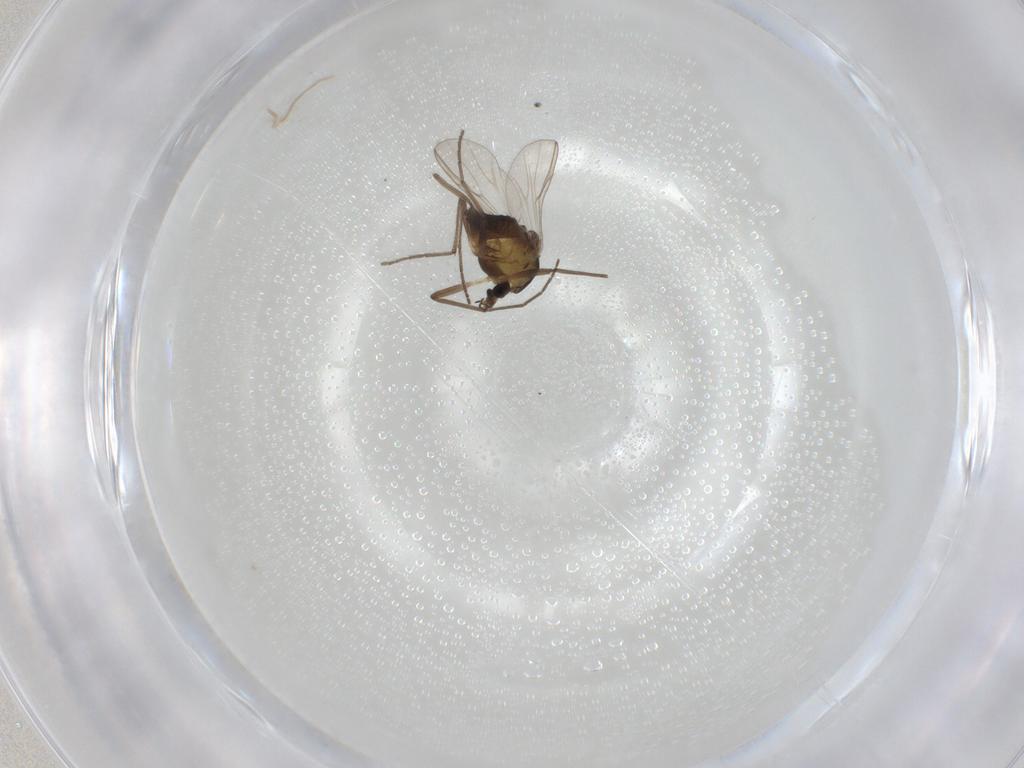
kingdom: Animalia
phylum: Arthropoda
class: Insecta
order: Diptera
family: Chironomidae
